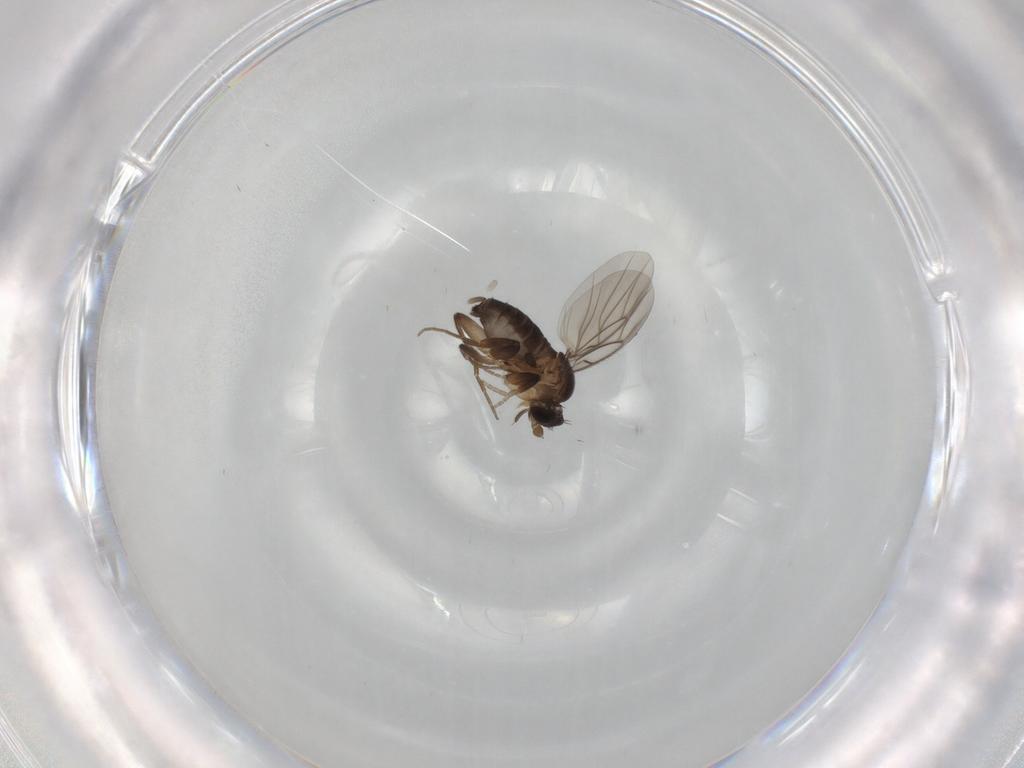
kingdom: Animalia
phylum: Arthropoda
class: Insecta
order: Diptera
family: Phoridae
